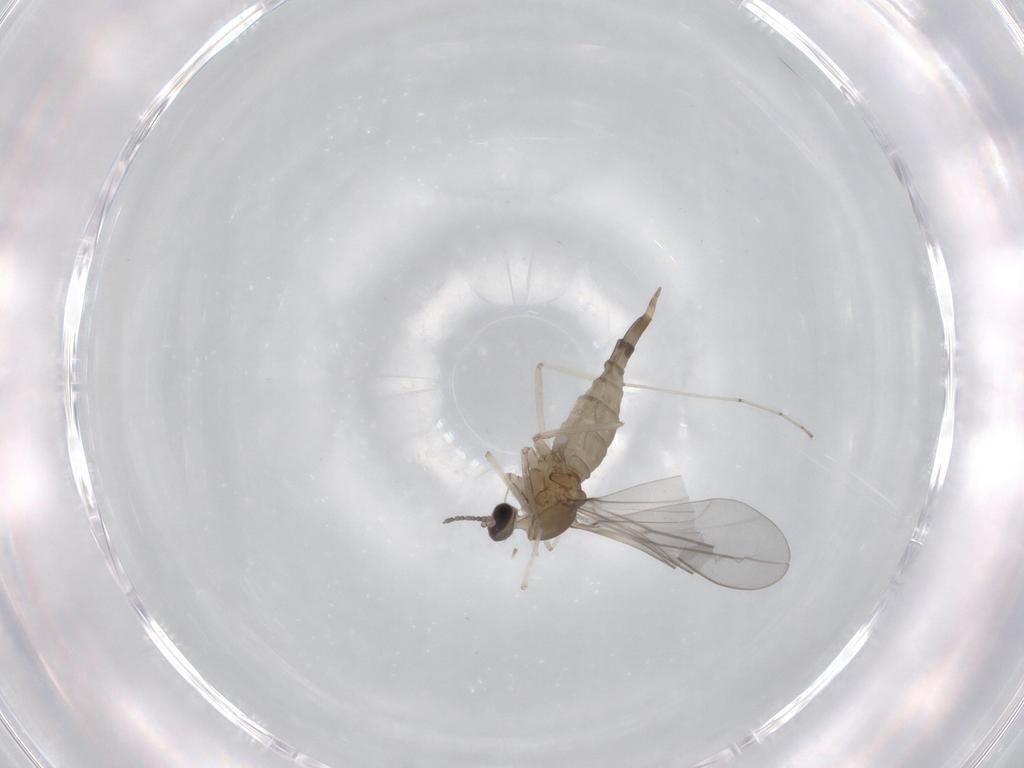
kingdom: Animalia
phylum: Arthropoda
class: Insecta
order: Diptera
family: Cecidomyiidae
